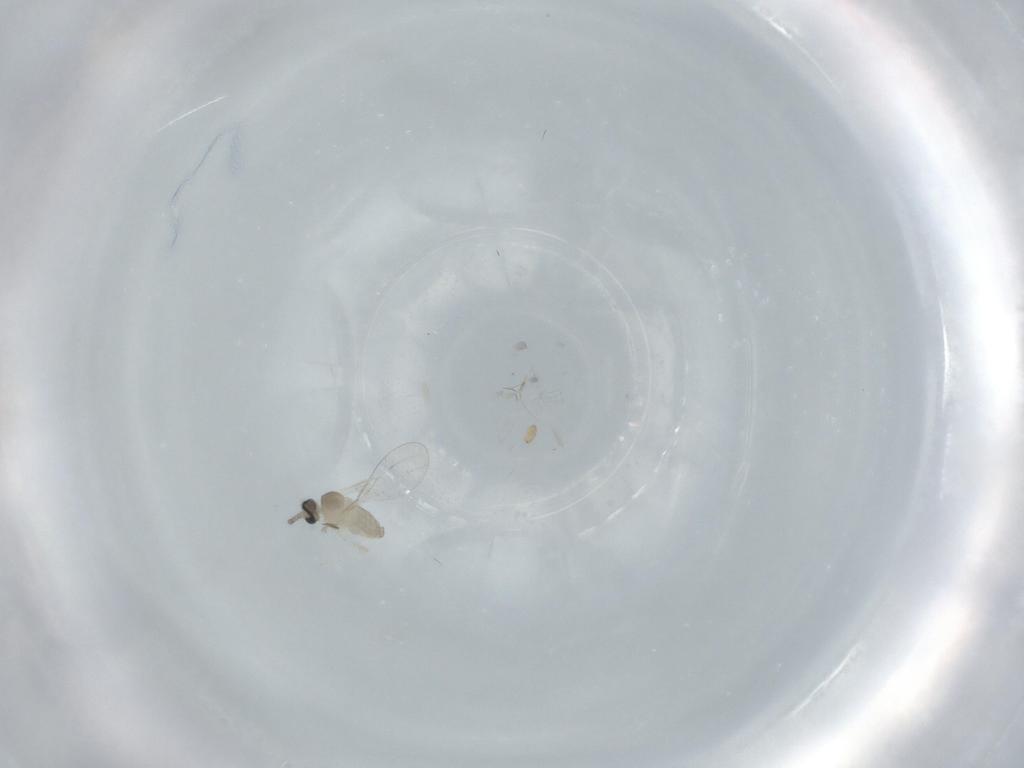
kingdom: Animalia
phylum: Arthropoda
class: Insecta
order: Diptera
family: Cecidomyiidae
